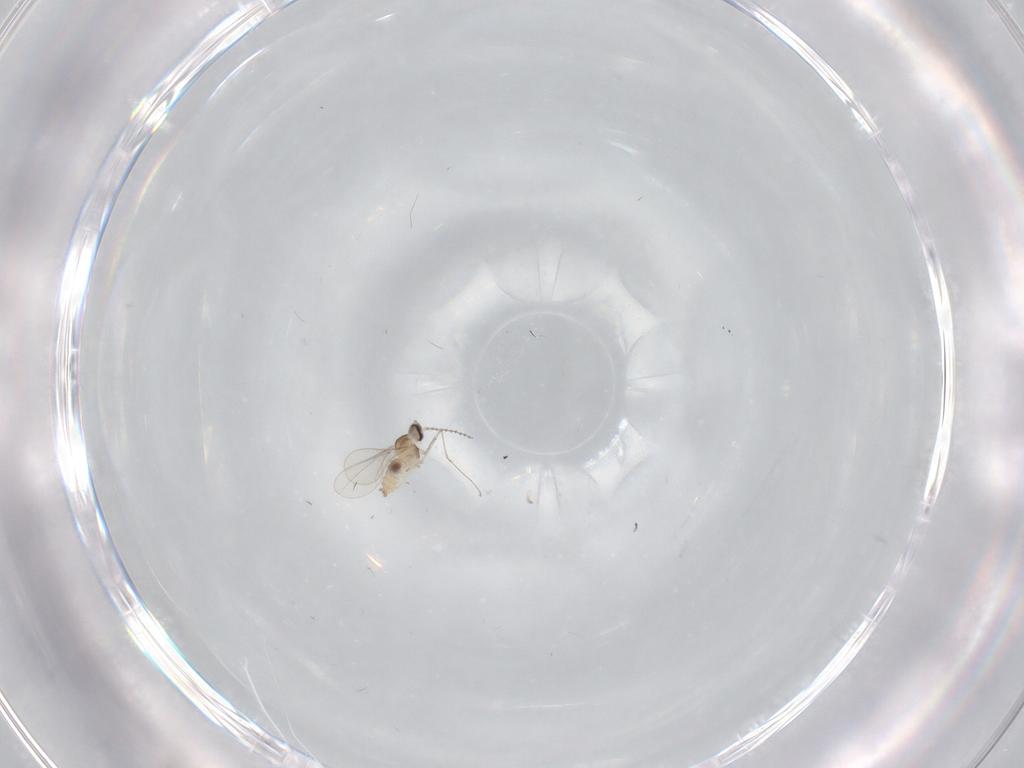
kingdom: Animalia
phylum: Arthropoda
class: Insecta
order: Diptera
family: Cecidomyiidae
